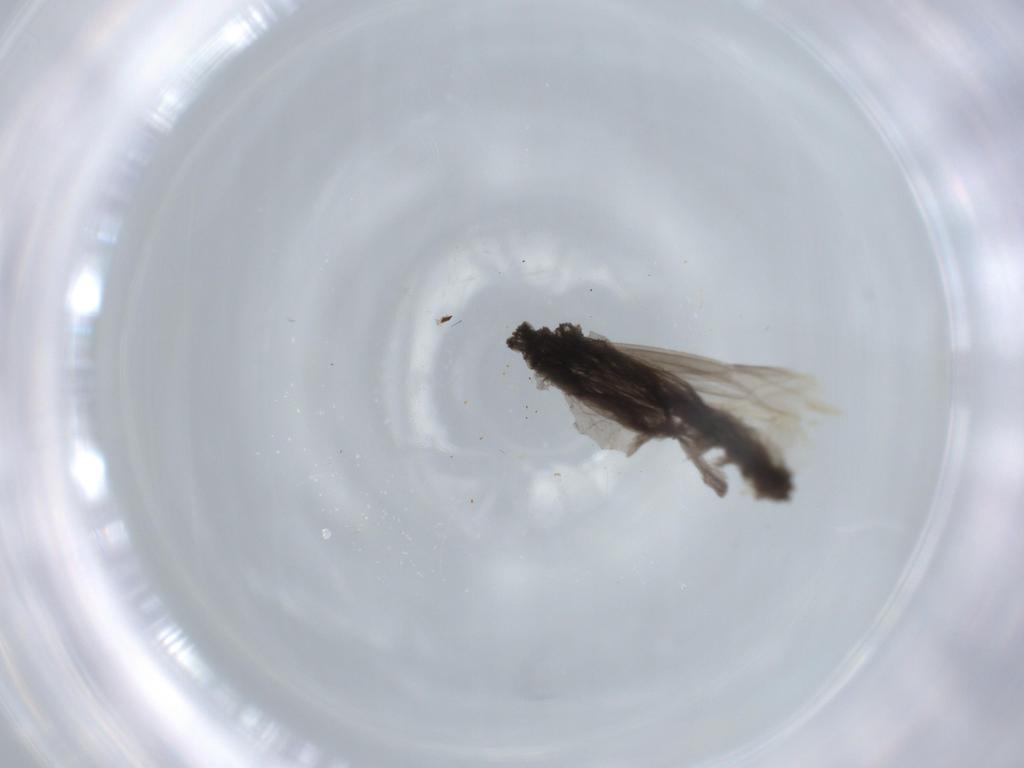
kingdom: Animalia
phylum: Arthropoda
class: Insecta
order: Diptera
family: Chironomidae
